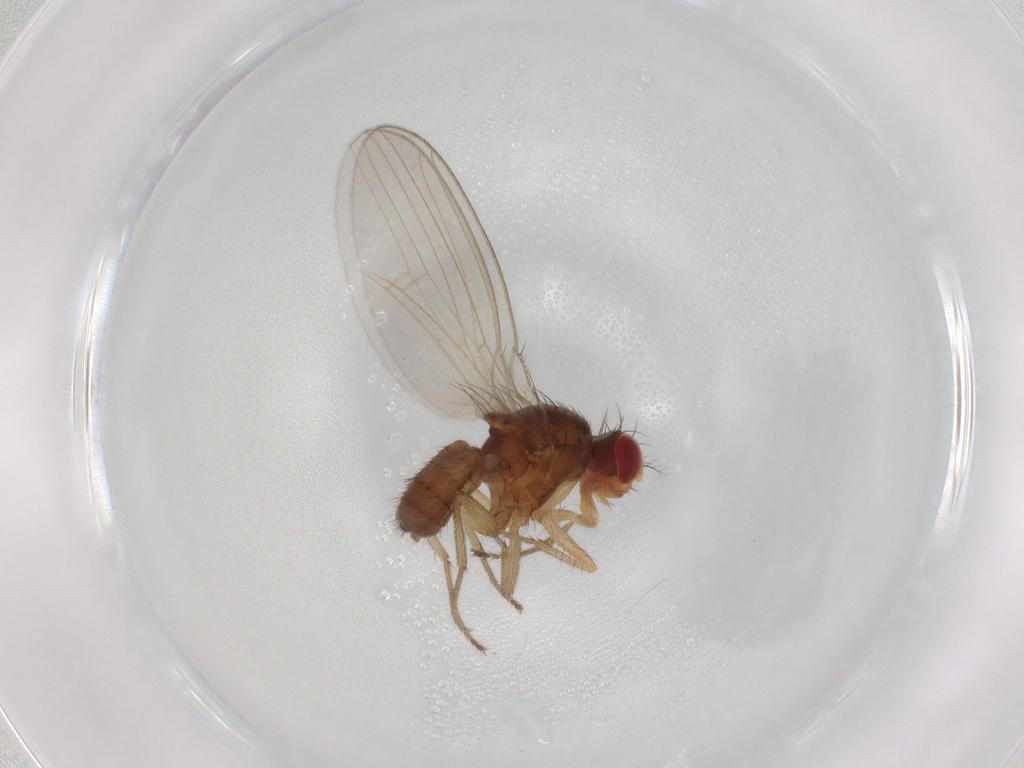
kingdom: Animalia
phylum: Arthropoda
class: Insecta
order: Diptera
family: Drosophilidae
